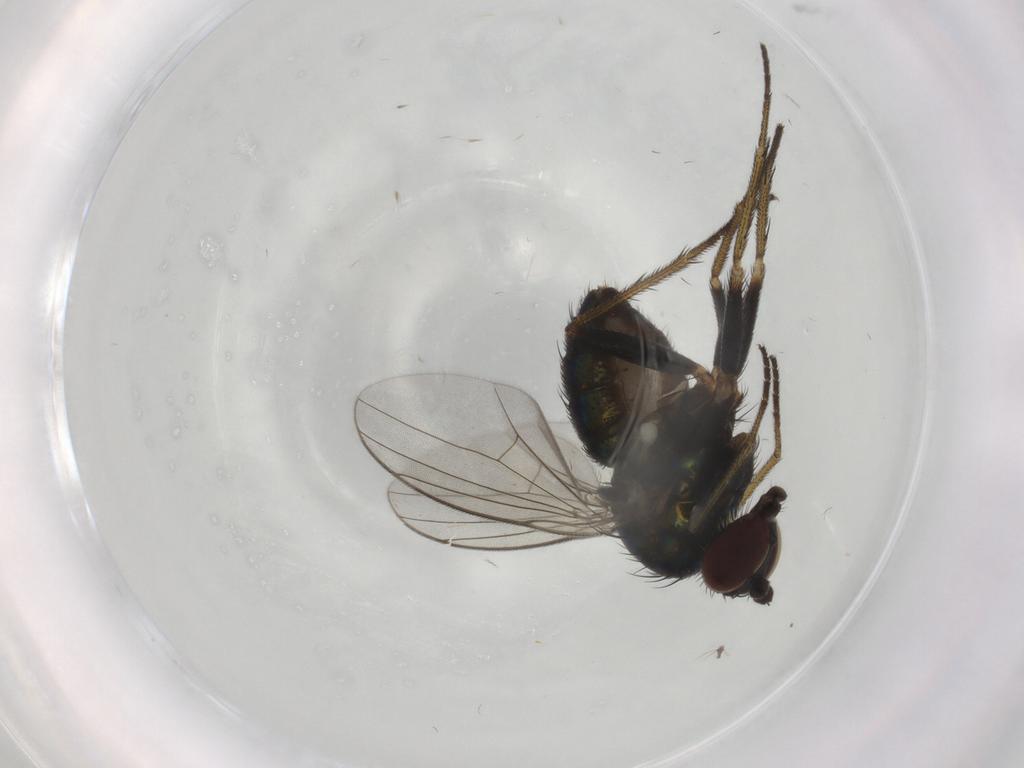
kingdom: Animalia
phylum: Arthropoda
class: Insecta
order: Diptera
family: Dolichopodidae
